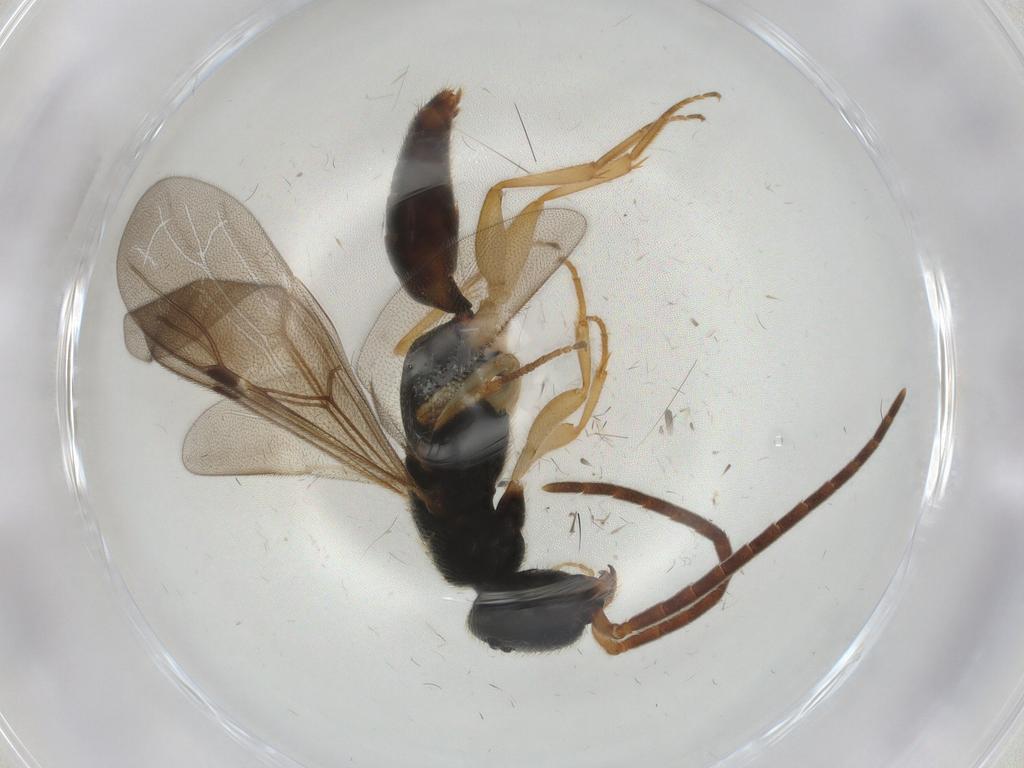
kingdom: Animalia
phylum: Arthropoda
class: Insecta
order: Hymenoptera
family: Bethylidae
